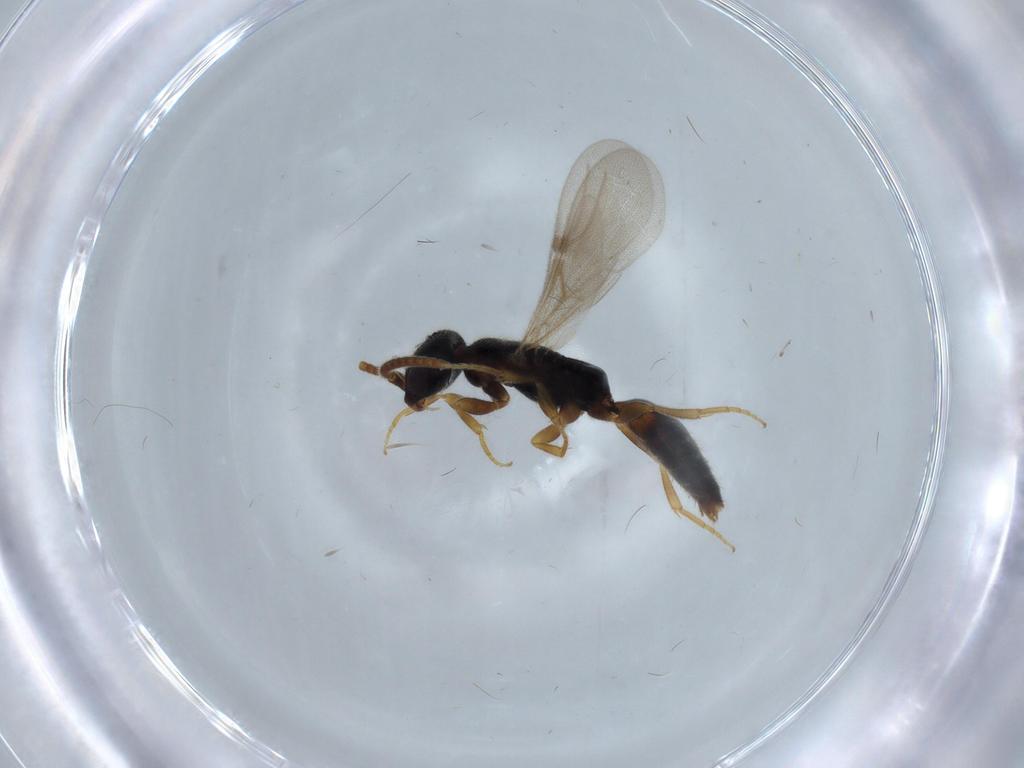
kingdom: Animalia
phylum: Arthropoda
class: Insecta
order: Hymenoptera
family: Bethylidae
